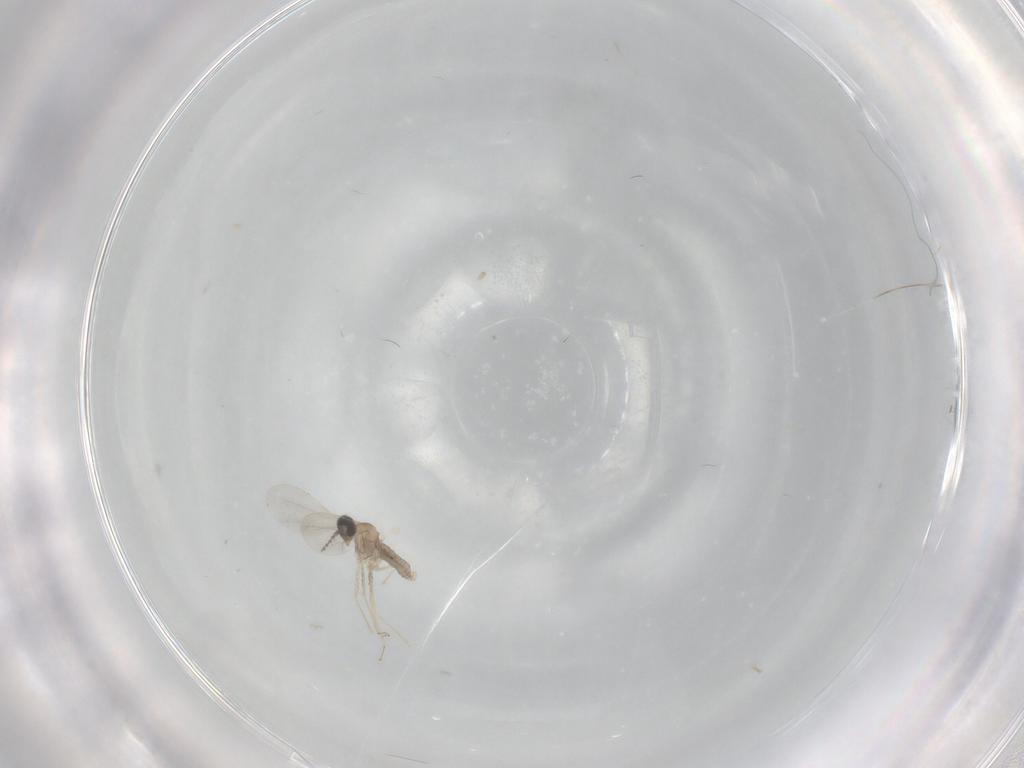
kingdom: Animalia
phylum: Arthropoda
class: Insecta
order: Diptera
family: Cecidomyiidae
